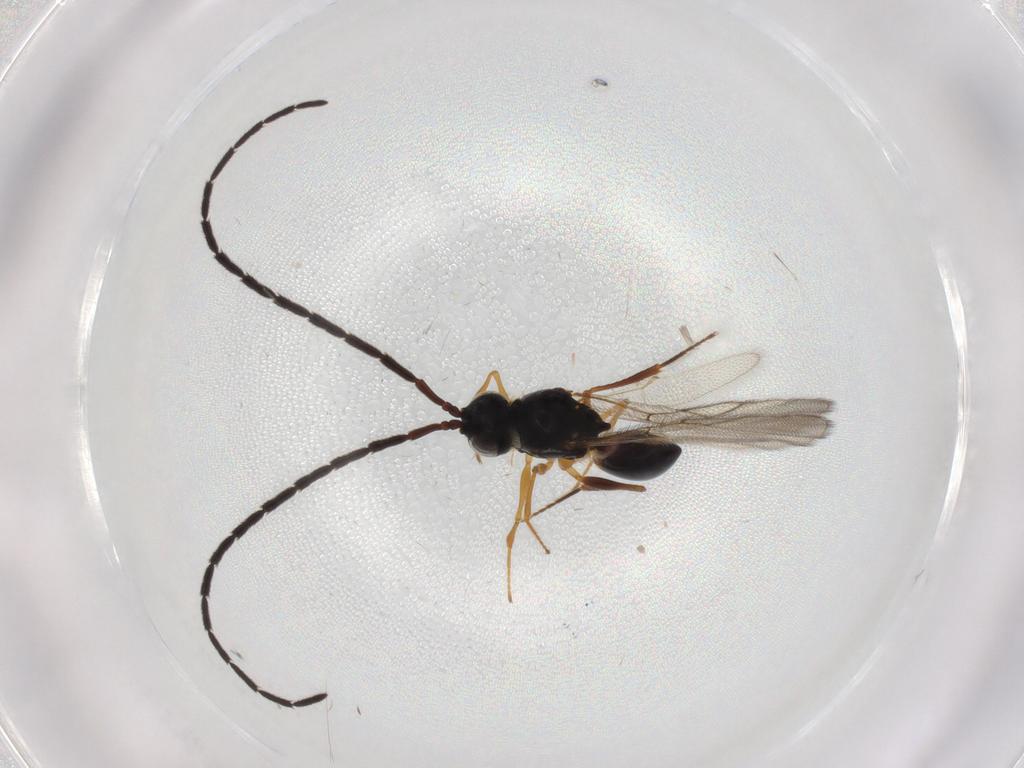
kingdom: Animalia
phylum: Arthropoda
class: Insecta
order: Hymenoptera
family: Figitidae
